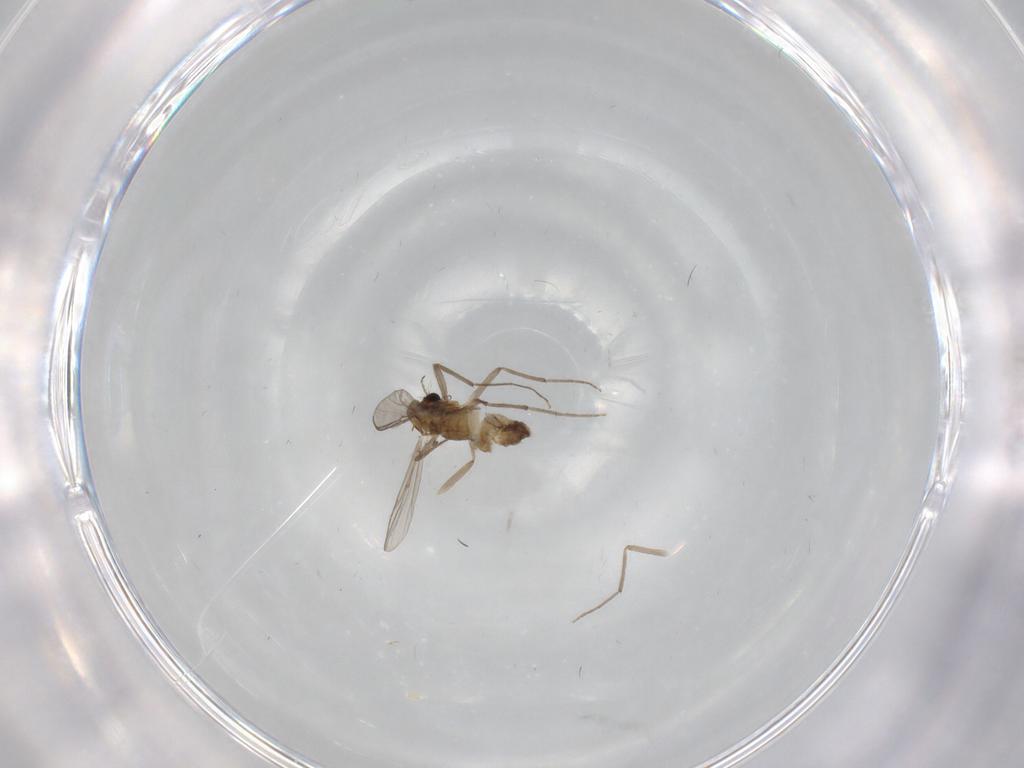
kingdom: Animalia
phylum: Arthropoda
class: Insecta
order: Diptera
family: Chironomidae
